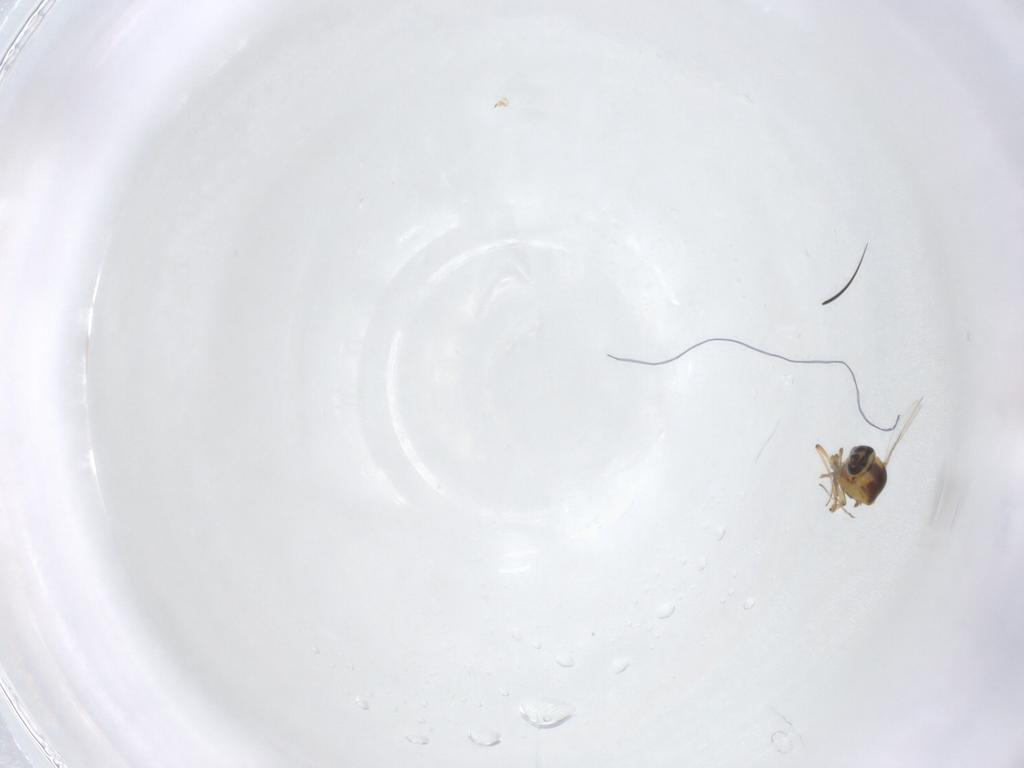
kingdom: Animalia
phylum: Arthropoda
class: Insecta
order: Diptera
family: Ceratopogonidae
